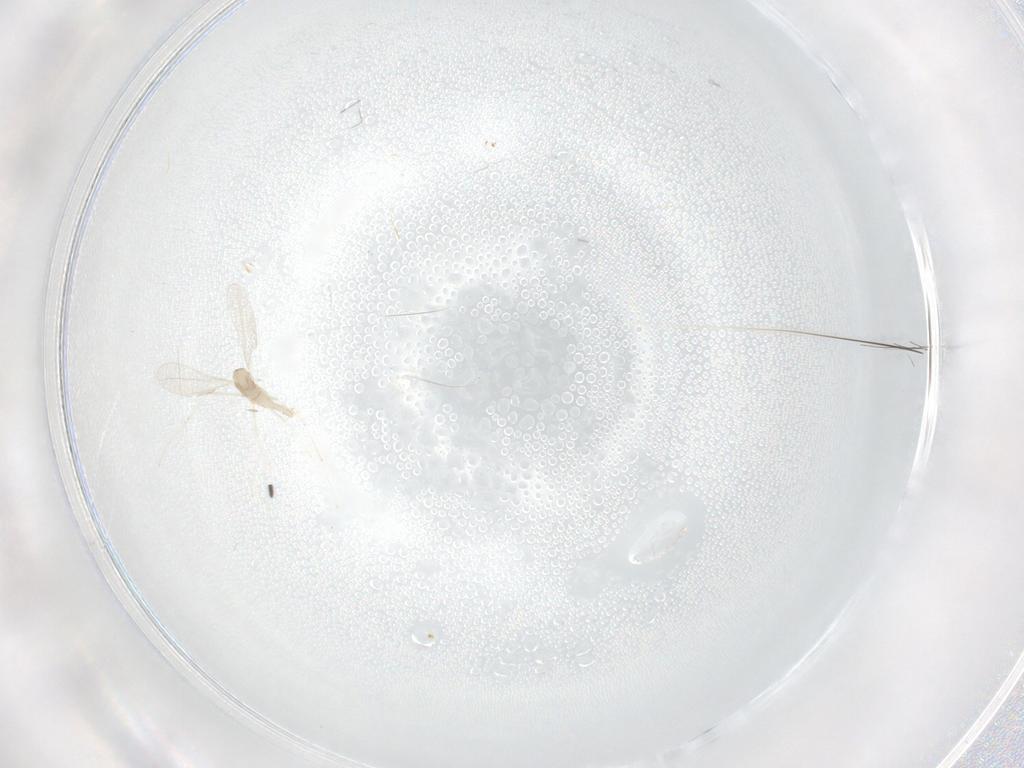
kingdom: Animalia
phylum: Arthropoda
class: Insecta
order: Diptera
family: Cecidomyiidae
